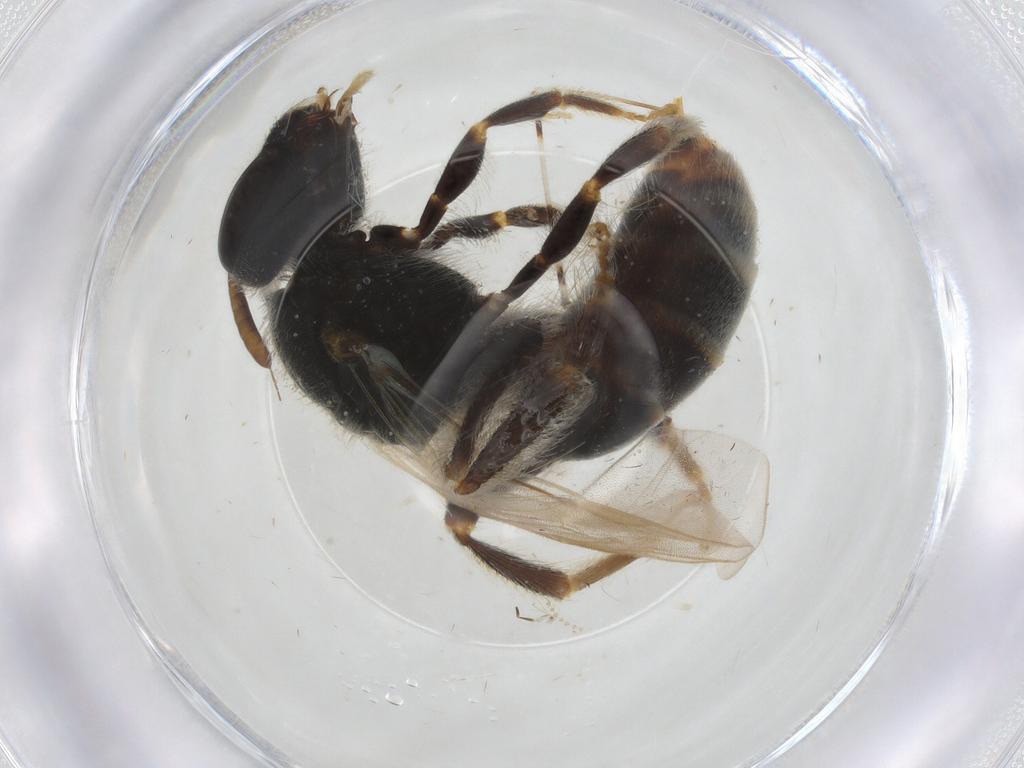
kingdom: Animalia
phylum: Arthropoda
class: Insecta
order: Hymenoptera
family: Halictidae
